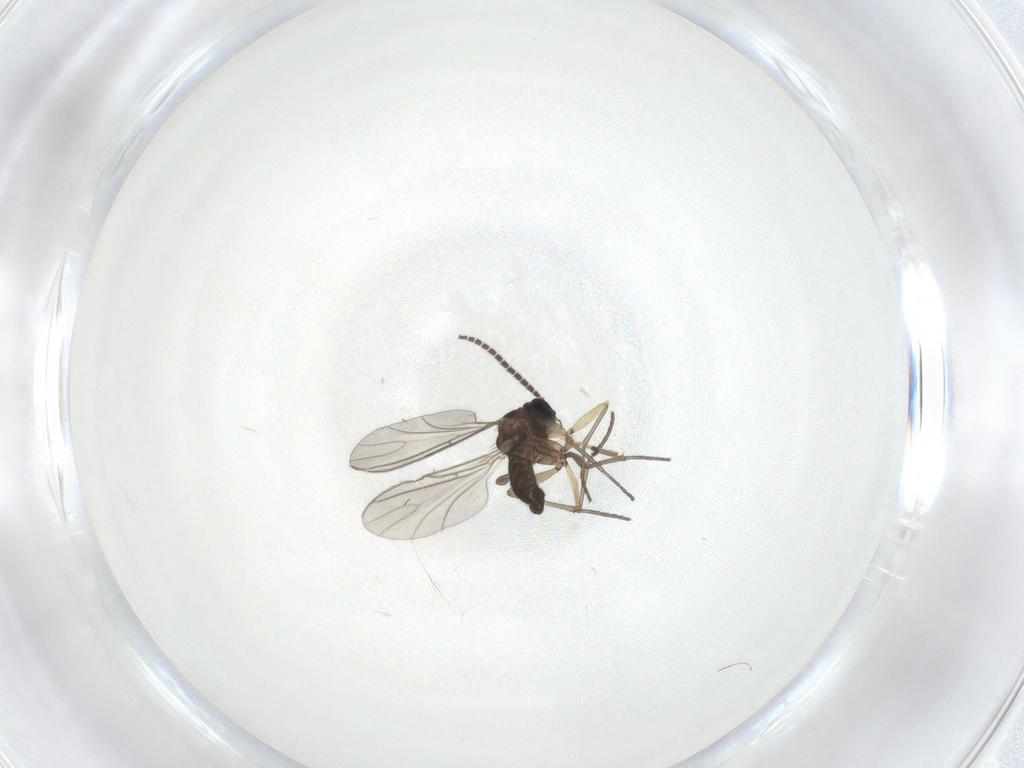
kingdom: Animalia
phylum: Arthropoda
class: Insecta
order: Diptera
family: Sciaridae
